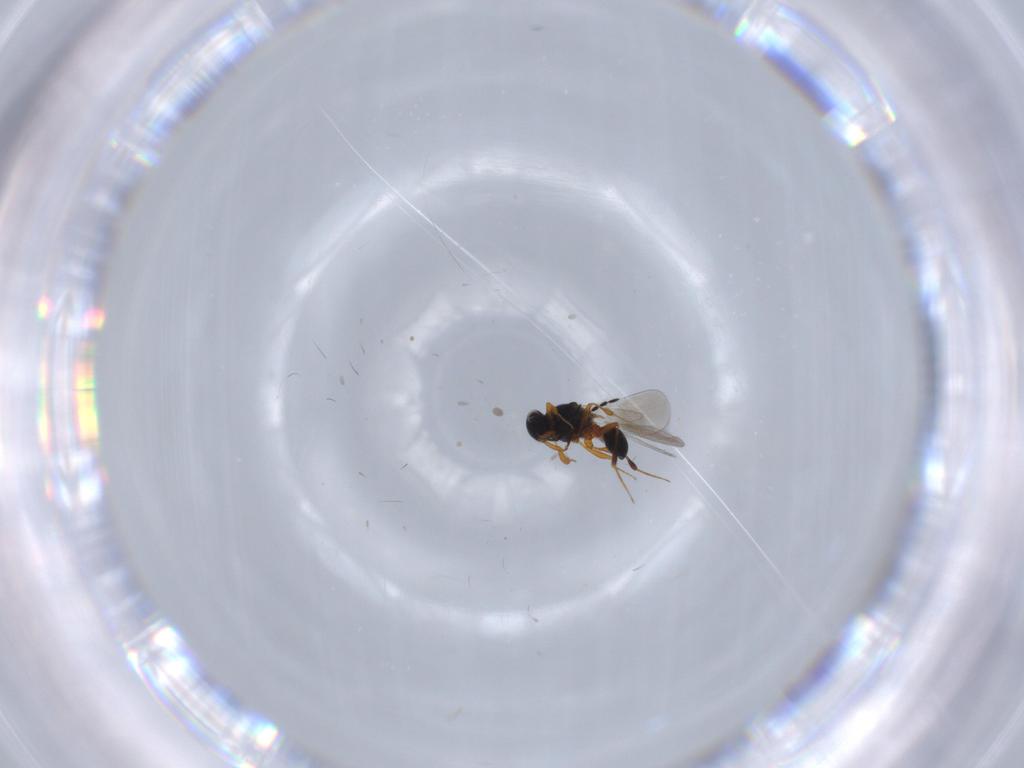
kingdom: Animalia
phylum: Arthropoda
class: Insecta
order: Hymenoptera
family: Platygastridae
